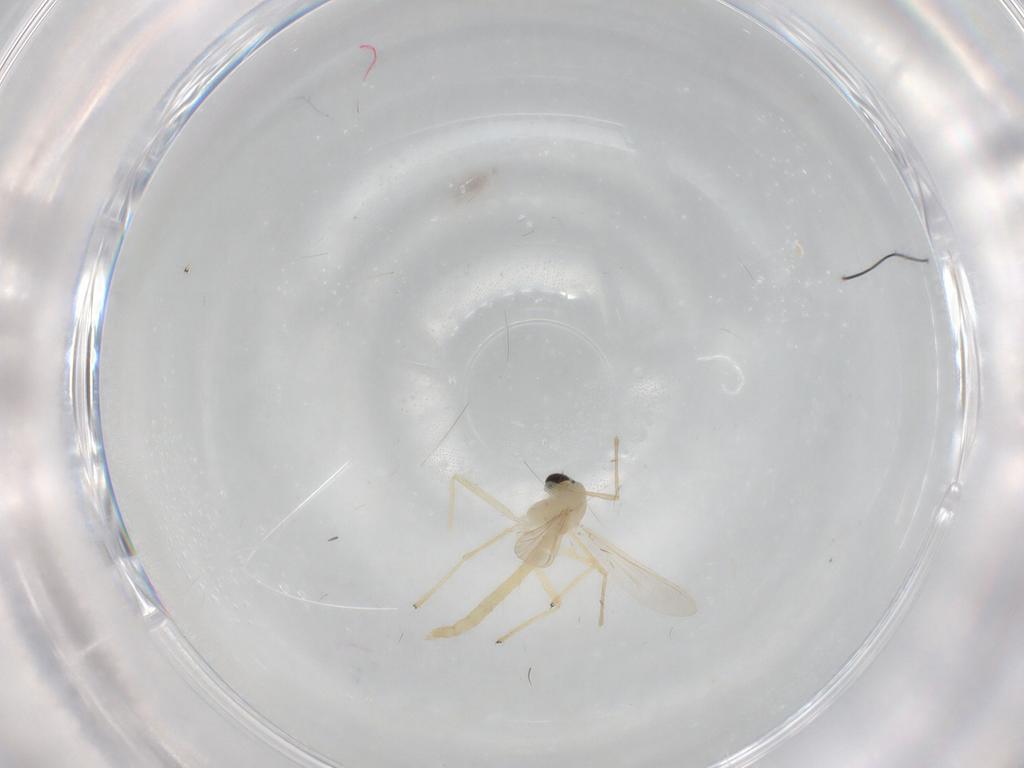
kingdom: Animalia
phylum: Arthropoda
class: Insecta
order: Diptera
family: Chironomidae
